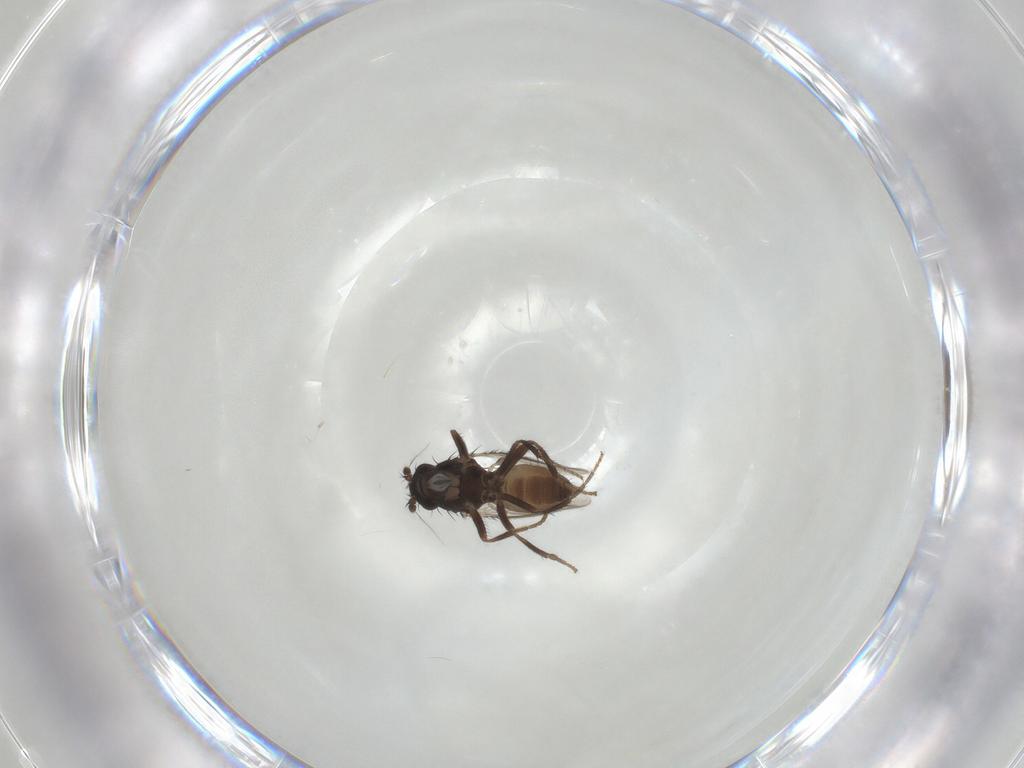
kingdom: Animalia
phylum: Arthropoda
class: Insecta
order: Diptera
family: Sphaeroceridae
